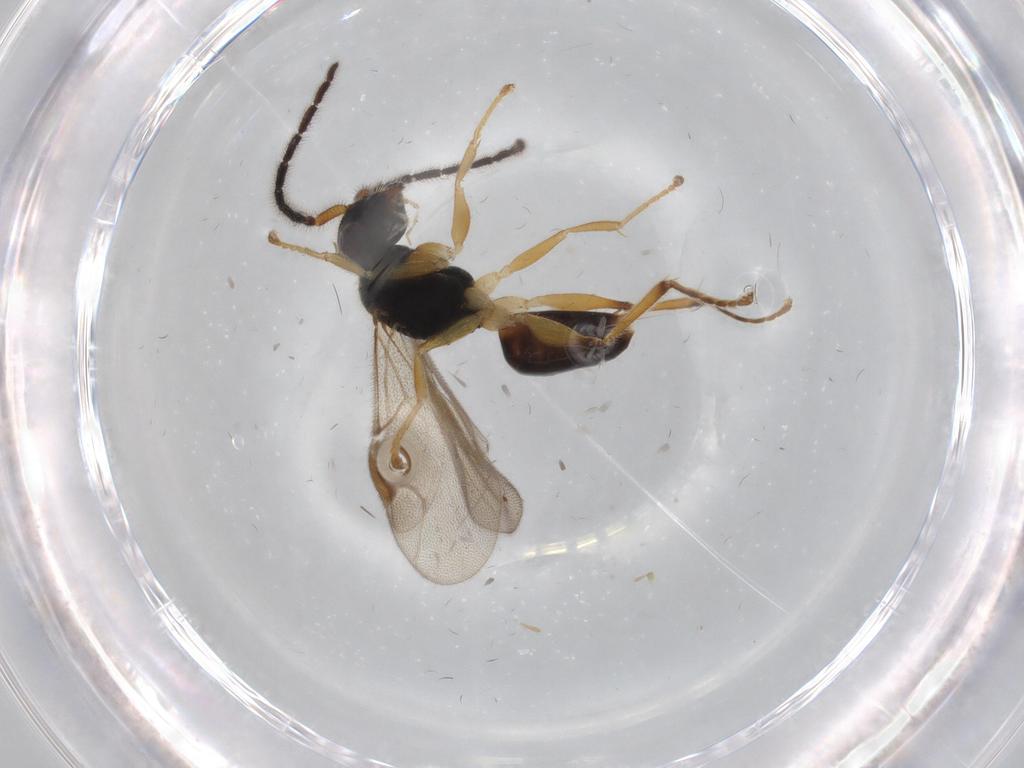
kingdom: Animalia
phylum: Arthropoda
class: Insecta
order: Hymenoptera
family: Dryinidae
